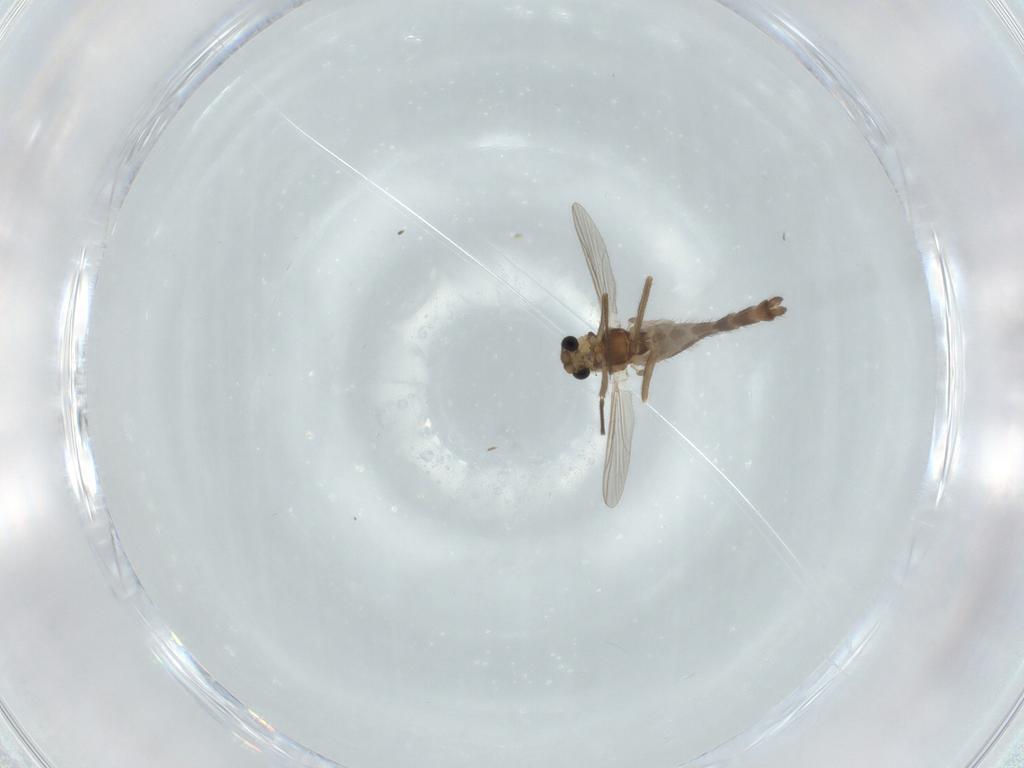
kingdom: Animalia
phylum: Arthropoda
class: Insecta
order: Diptera
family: Chironomidae
